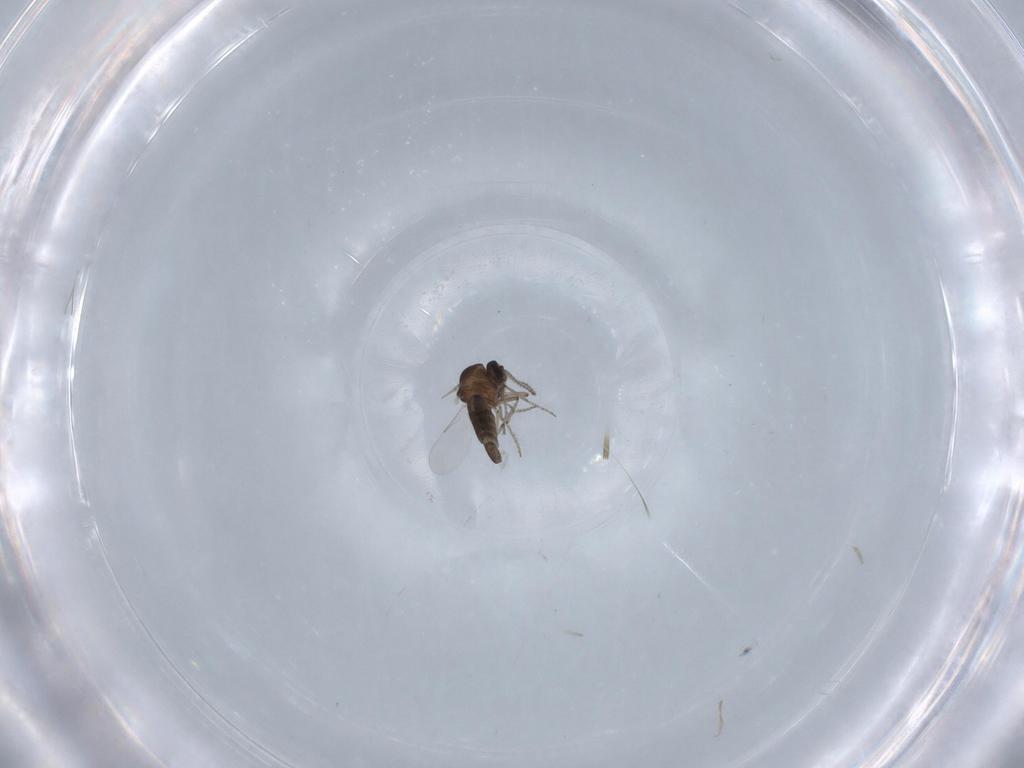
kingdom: Animalia
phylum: Arthropoda
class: Insecta
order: Diptera
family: Ceratopogonidae
